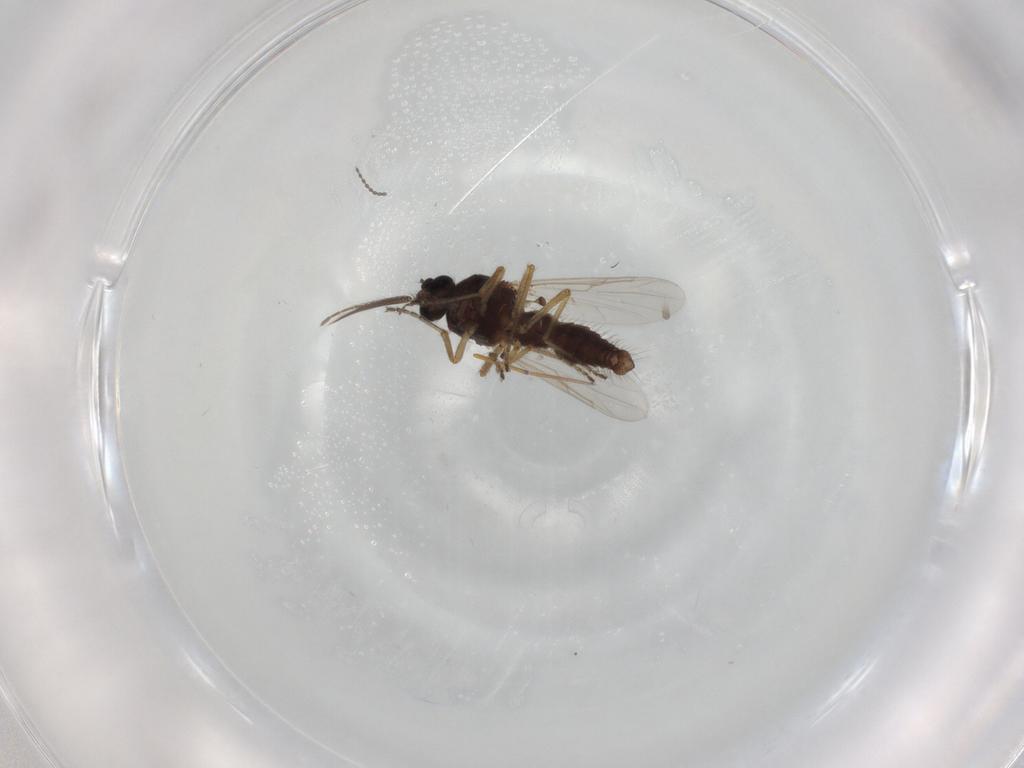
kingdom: Animalia
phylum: Arthropoda
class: Insecta
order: Diptera
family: Ceratopogonidae
